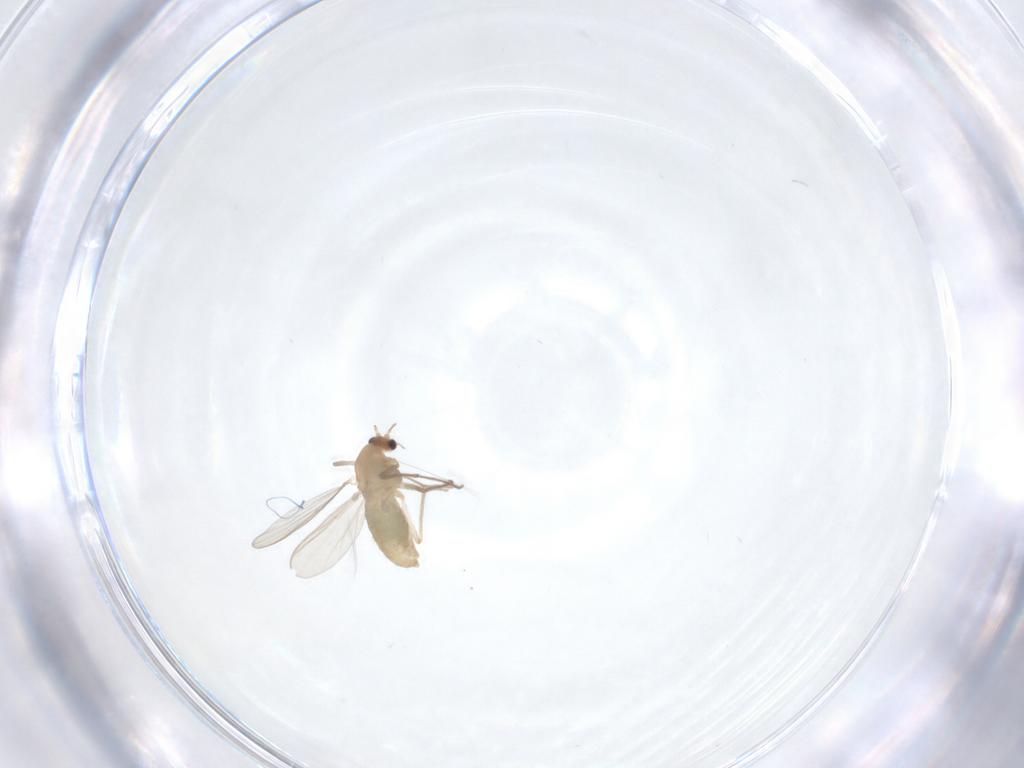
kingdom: Animalia
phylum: Arthropoda
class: Insecta
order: Diptera
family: Chironomidae
